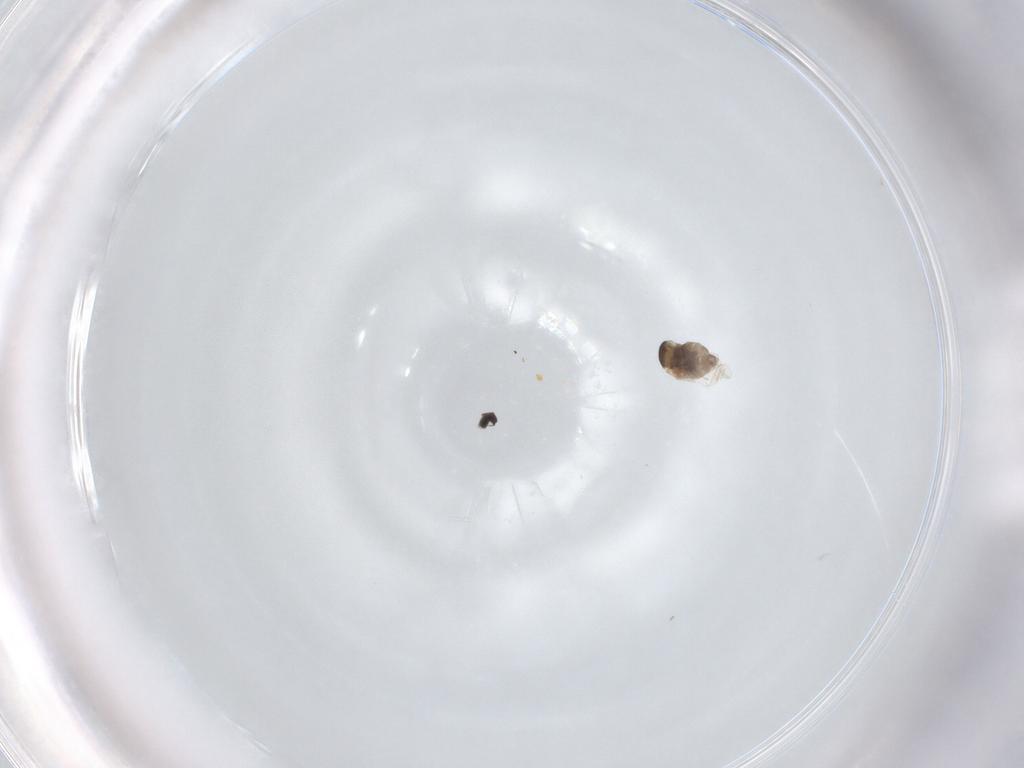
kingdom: Animalia
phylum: Arthropoda
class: Insecta
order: Diptera
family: Cecidomyiidae
